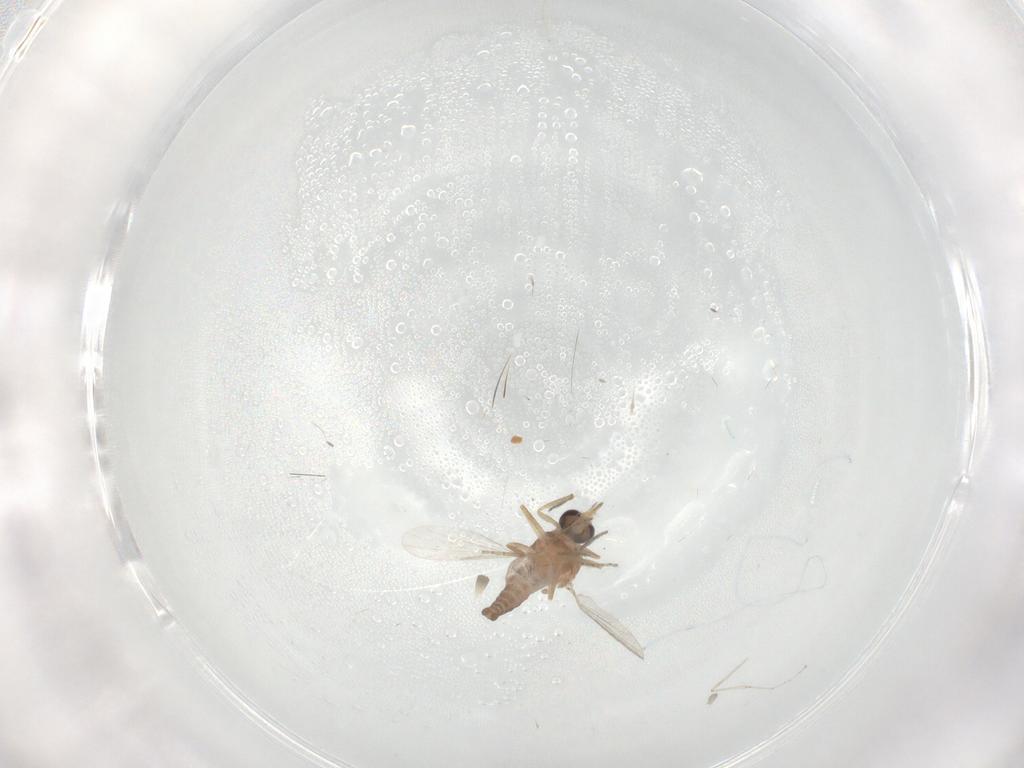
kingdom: Animalia
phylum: Arthropoda
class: Insecta
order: Diptera
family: Ceratopogonidae
